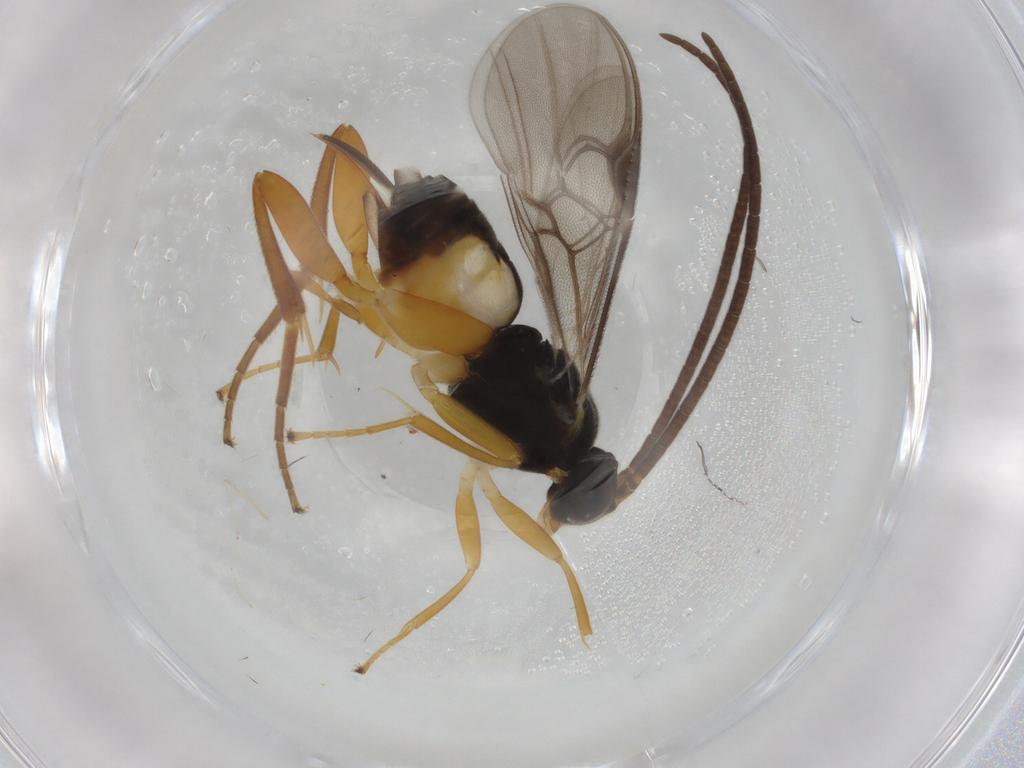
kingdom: Animalia
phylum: Arthropoda
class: Insecta
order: Hymenoptera
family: Braconidae
